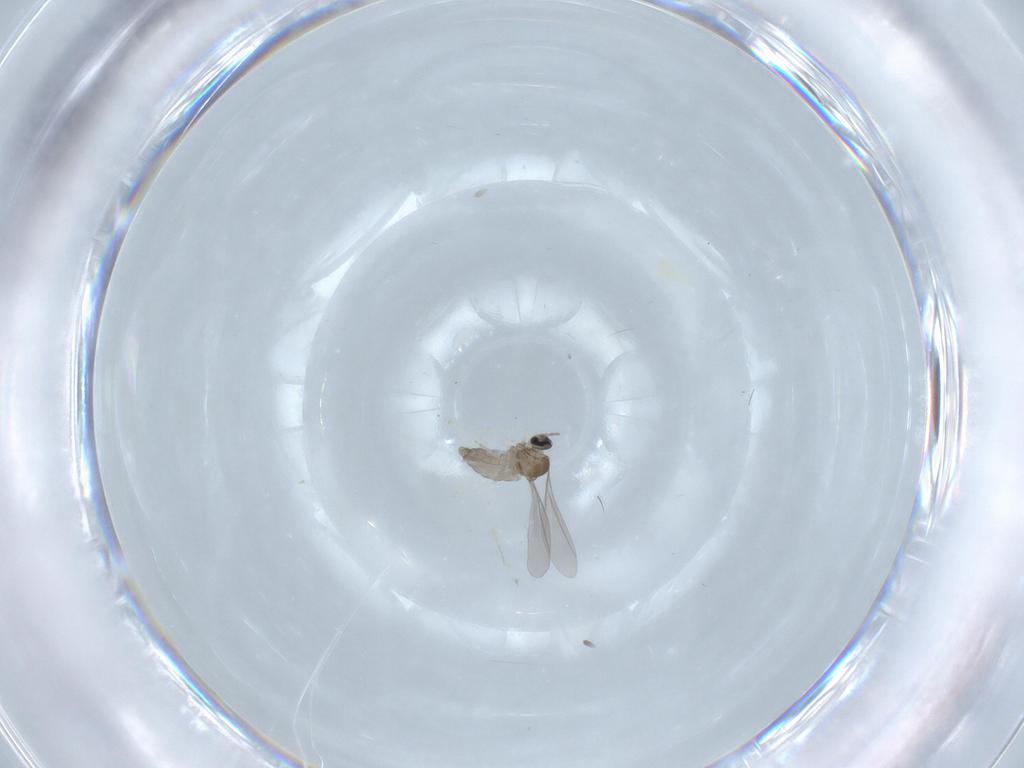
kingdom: Animalia
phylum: Arthropoda
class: Insecta
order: Diptera
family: Cecidomyiidae
